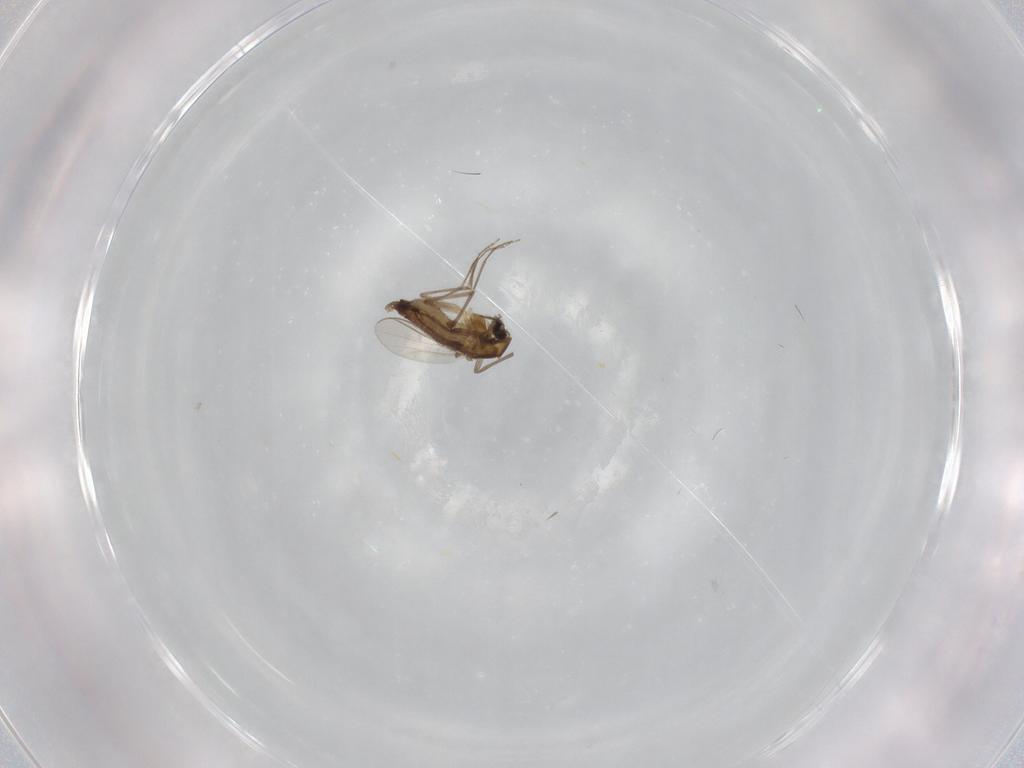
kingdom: Animalia
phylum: Arthropoda
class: Insecta
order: Diptera
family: Chironomidae
